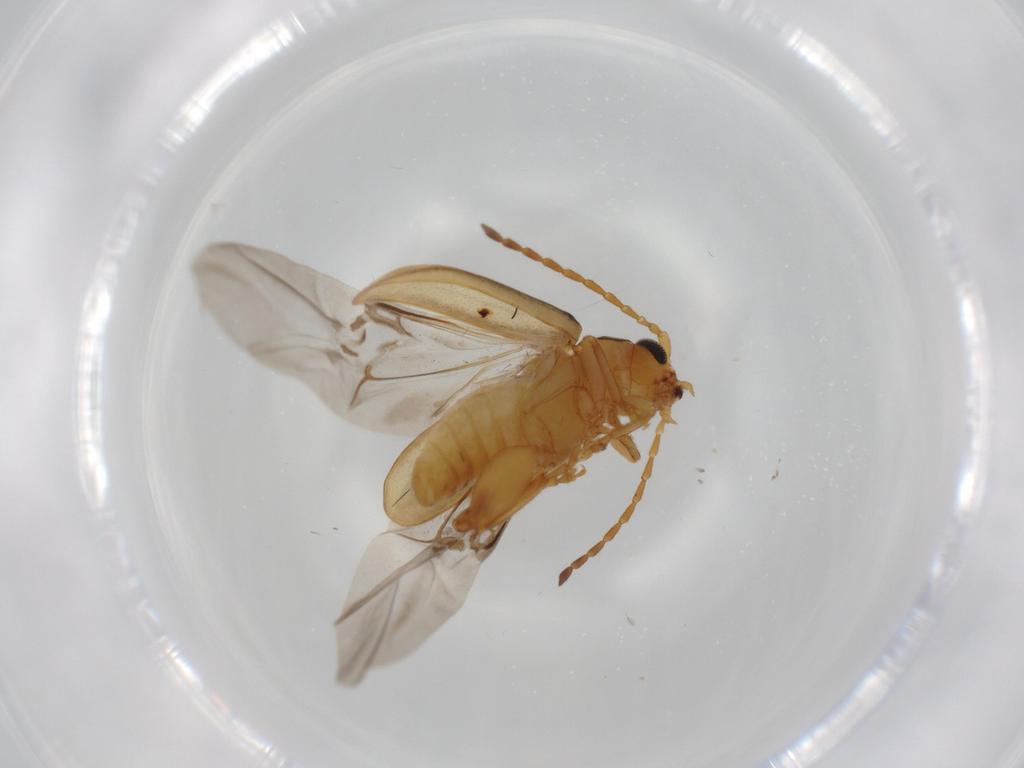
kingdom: Animalia
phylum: Arthropoda
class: Insecta
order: Coleoptera
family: Chrysomelidae
